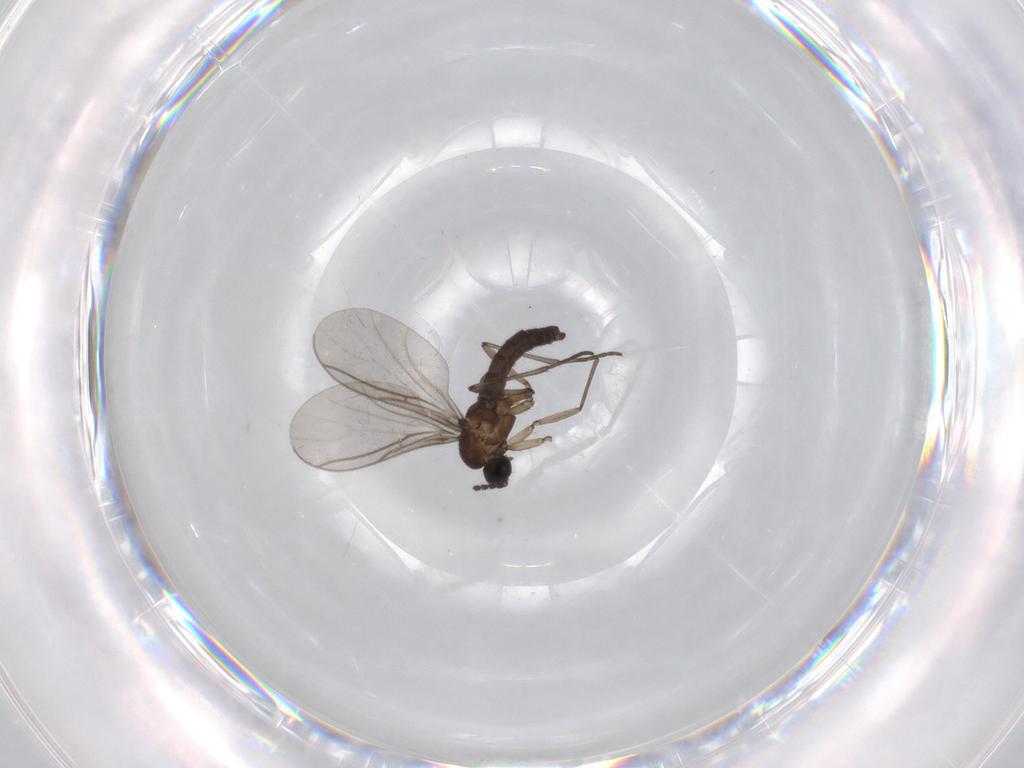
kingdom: Animalia
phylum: Arthropoda
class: Insecta
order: Diptera
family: Sciaridae
